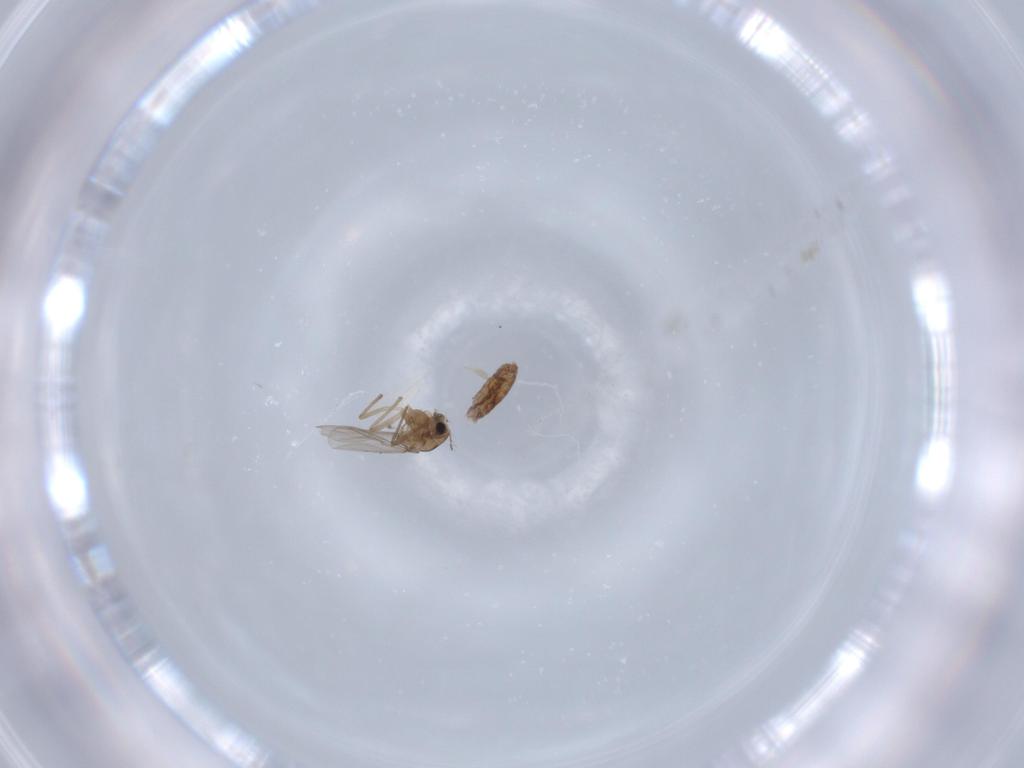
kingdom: Animalia
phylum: Arthropoda
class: Insecta
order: Diptera
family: Chironomidae
